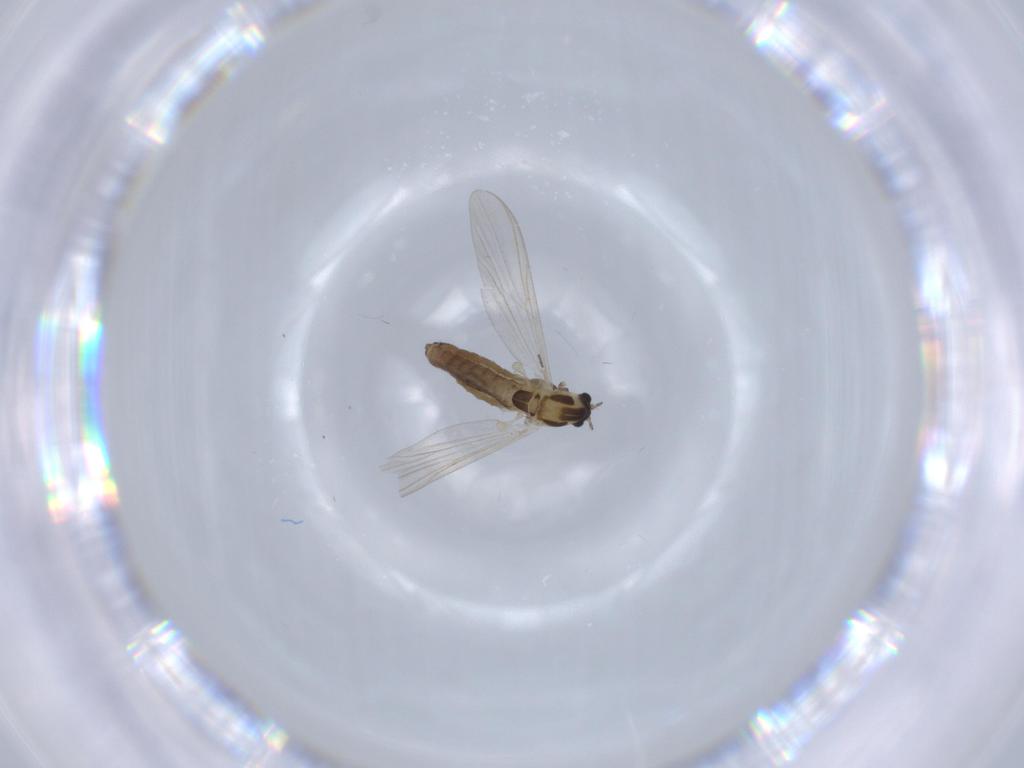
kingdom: Animalia
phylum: Arthropoda
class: Insecta
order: Diptera
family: Chironomidae
